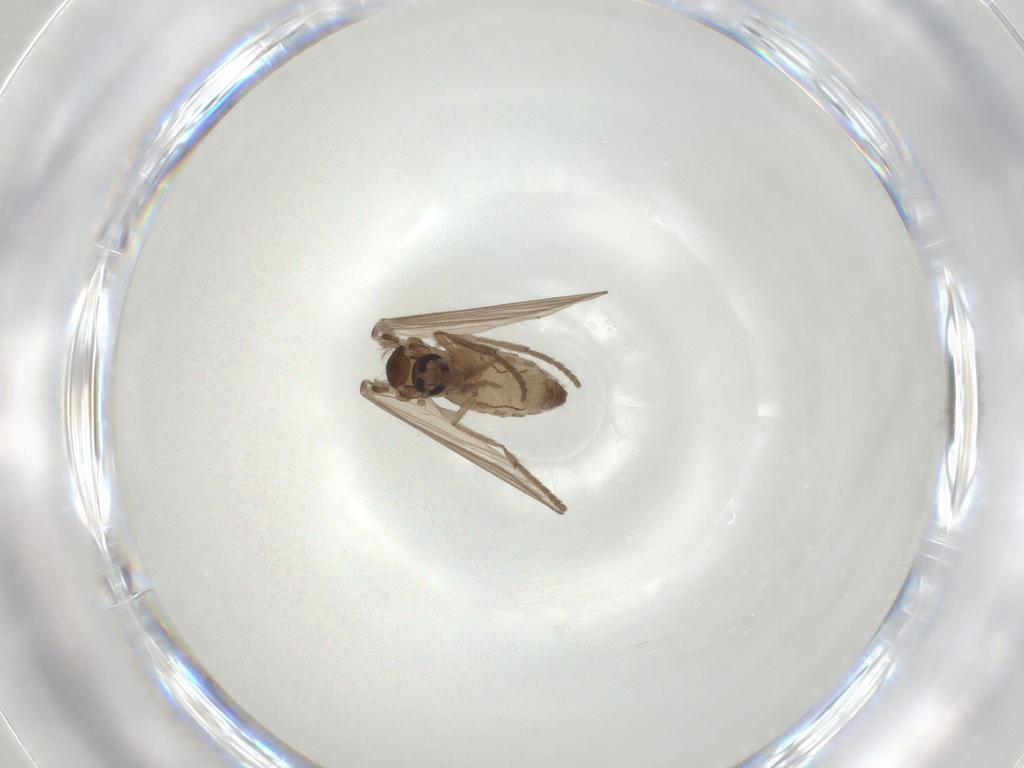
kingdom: Animalia
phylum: Arthropoda
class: Insecta
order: Diptera
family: Psychodidae
